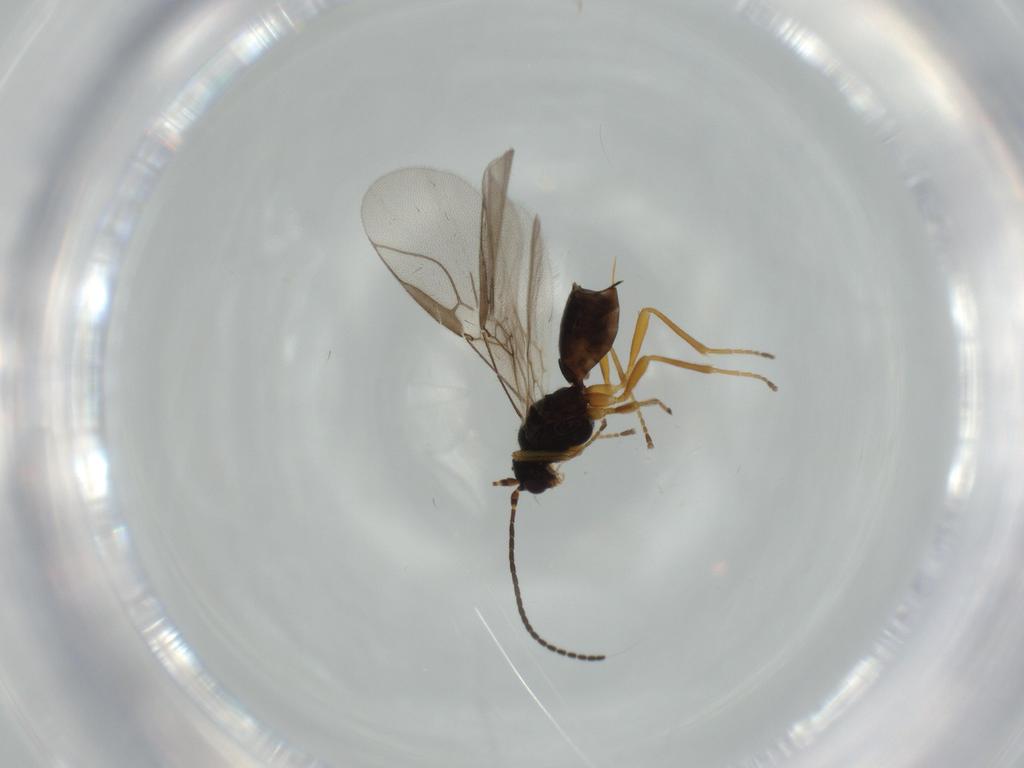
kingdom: Animalia
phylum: Arthropoda
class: Insecta
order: Hymenoptera
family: Braconidae
